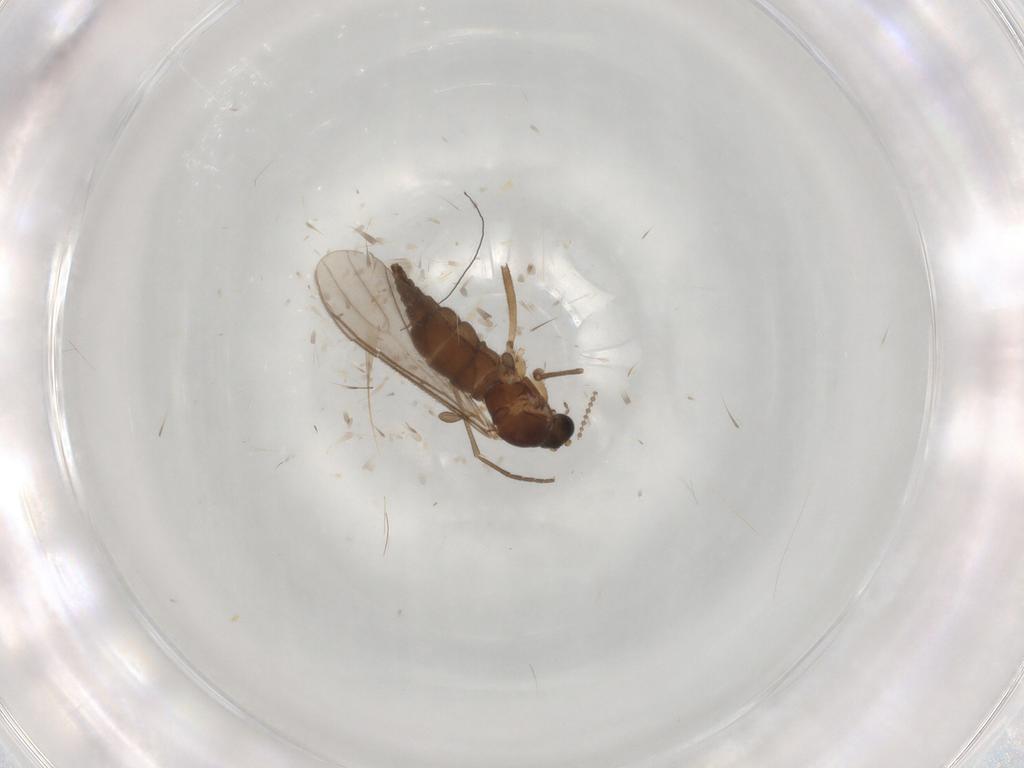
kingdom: Animalia
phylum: Arthropoda
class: Insecta
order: Diptera
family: Sciaridae
